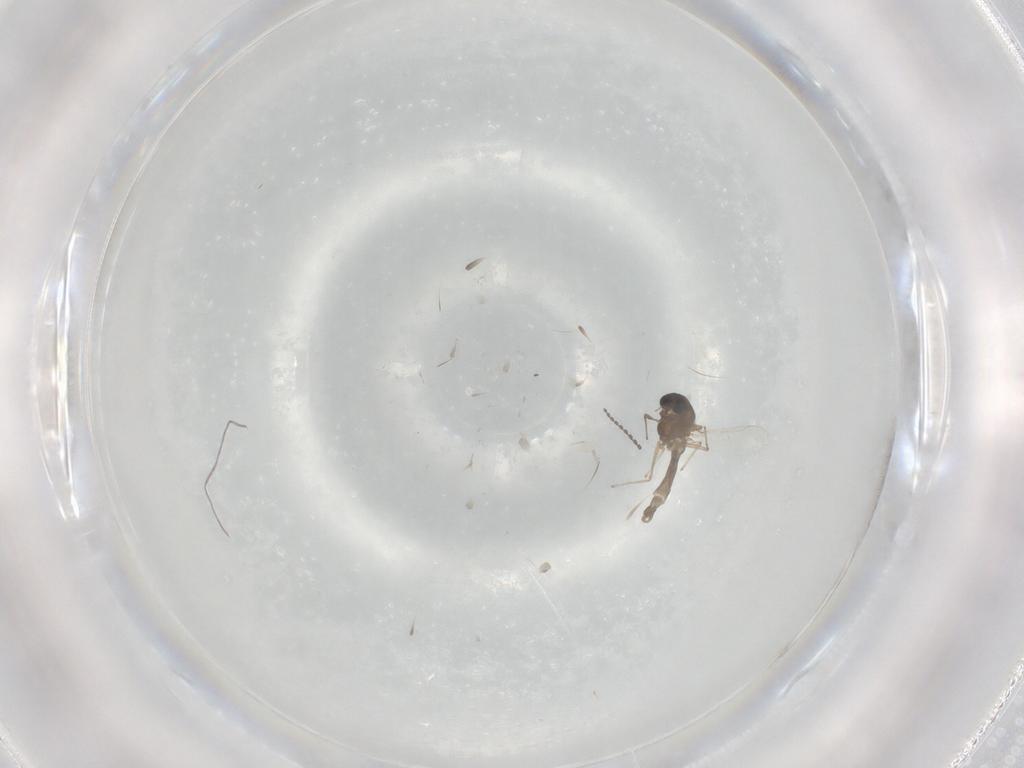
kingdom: Animalia
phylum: Arthropoda
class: Insecta
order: Diptera
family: Chironomidae
